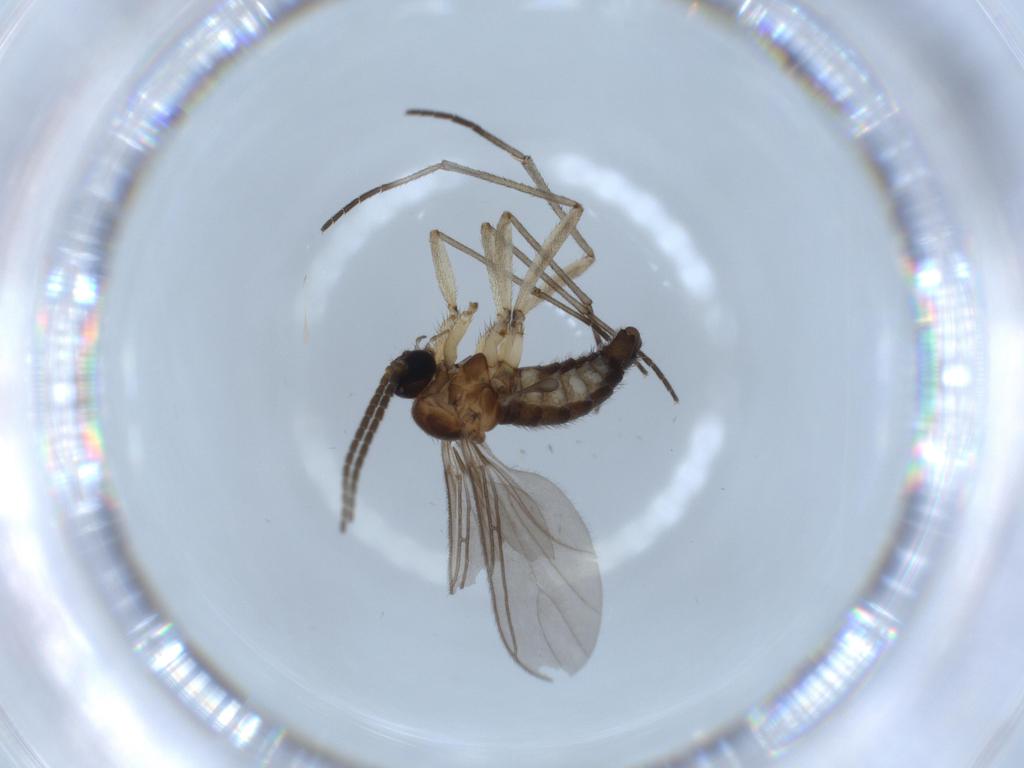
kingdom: Animalia
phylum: Arthropoda
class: Insecta
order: Diptera
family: Sciaridae
